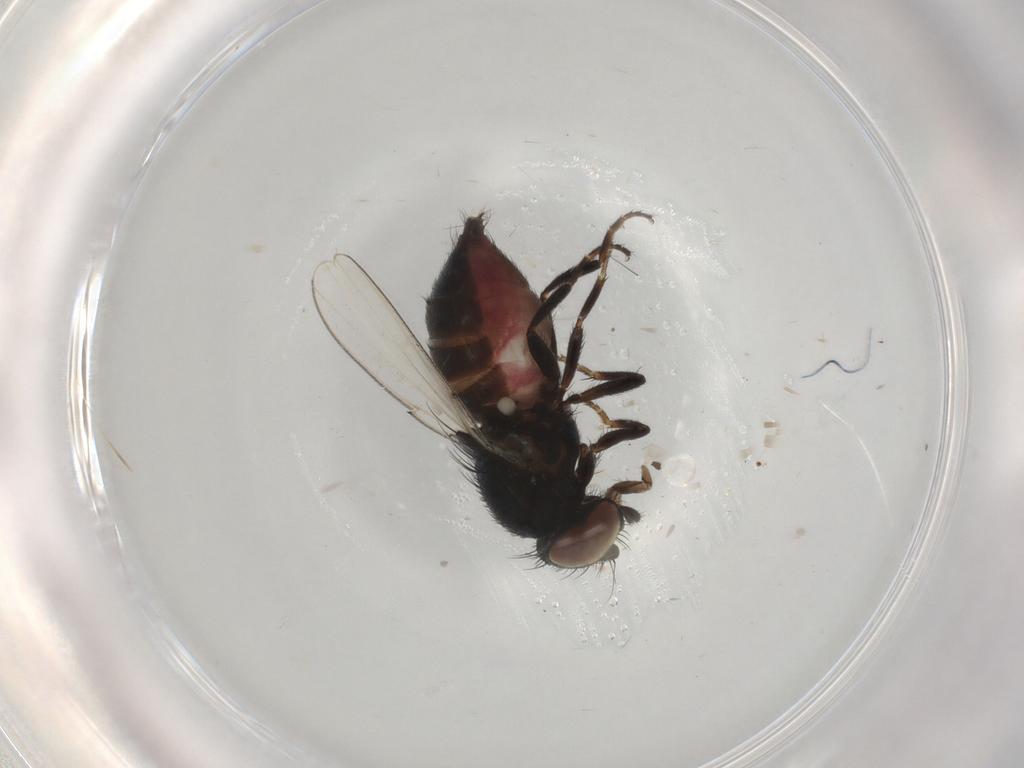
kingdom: Animalia
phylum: Arthropoda
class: Insecta
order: Diptera
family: Milichiidae
